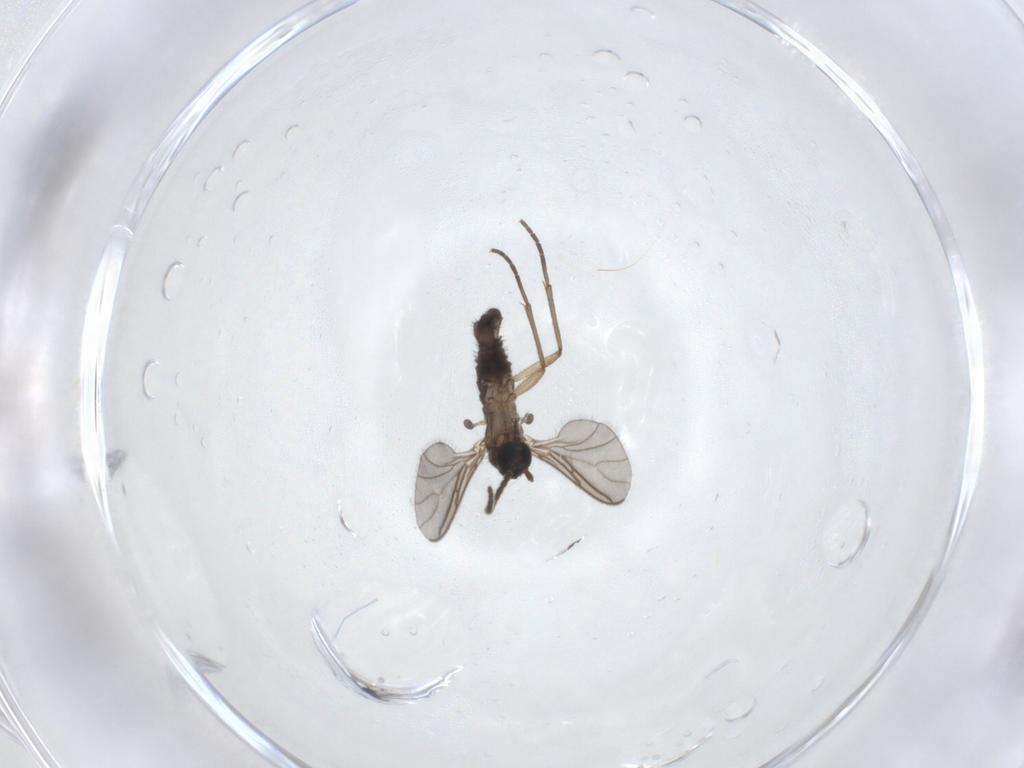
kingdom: Animalia
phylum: Arthropoda
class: Insecta
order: Diptera
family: Sciaridae
